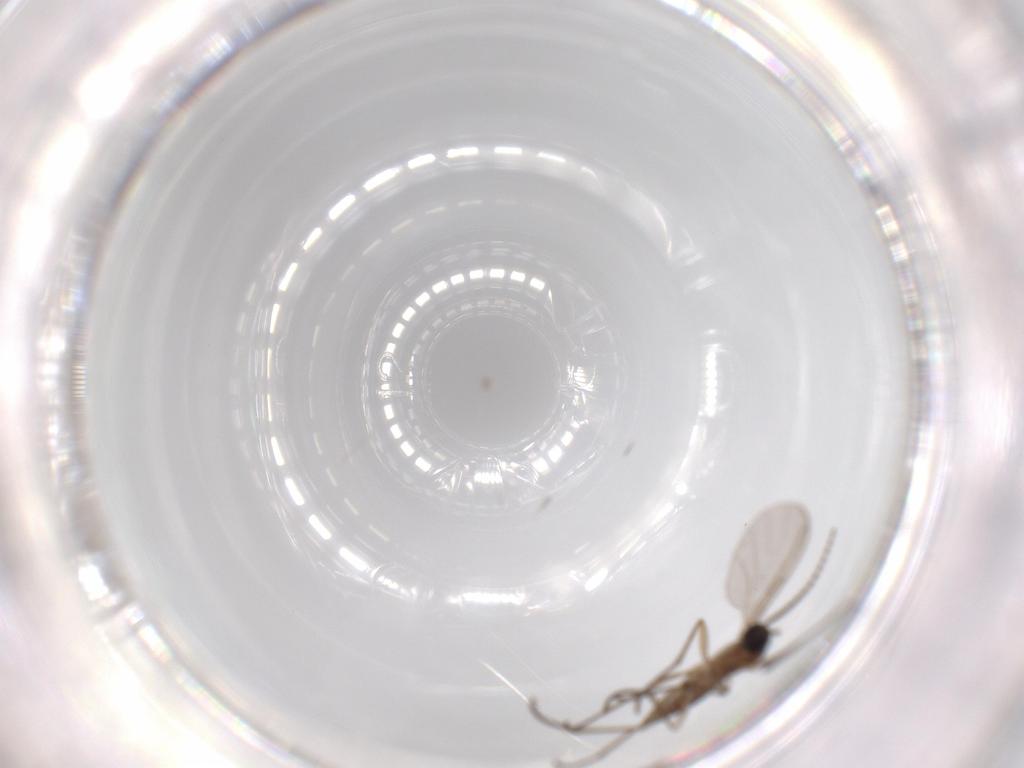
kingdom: Animalia
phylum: Arthropoda
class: Insecta
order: Diptera
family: Sciaridae
